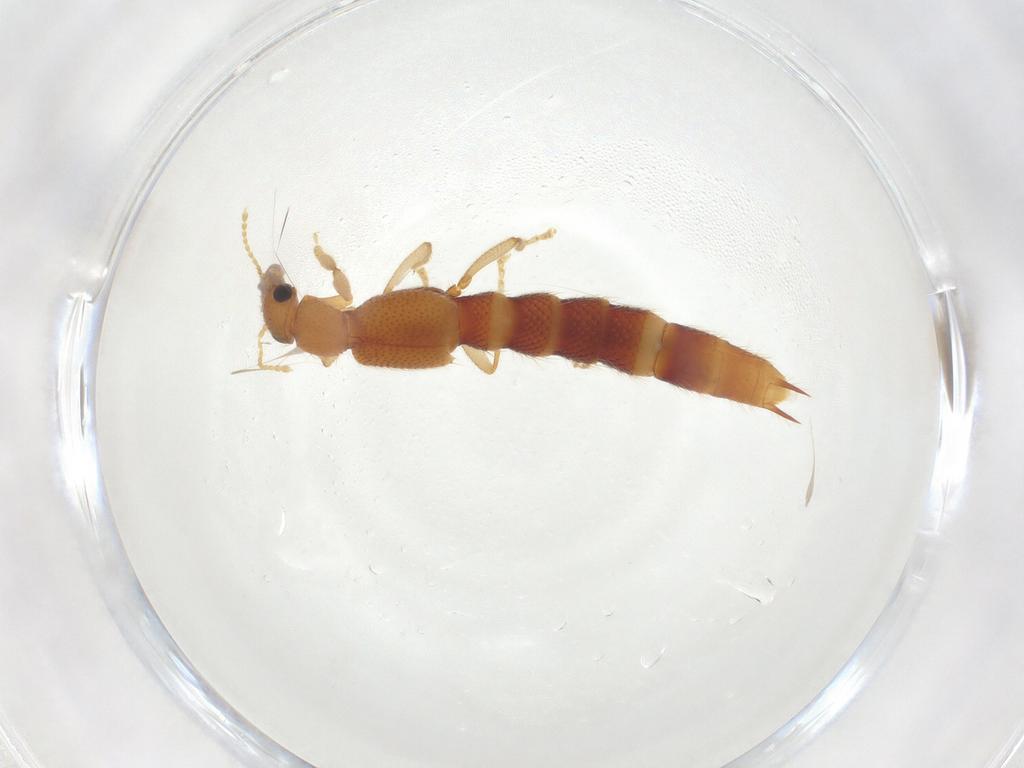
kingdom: Animalia
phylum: Arthropoda
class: Insecta
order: Coleoptera
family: Staphylinidae
